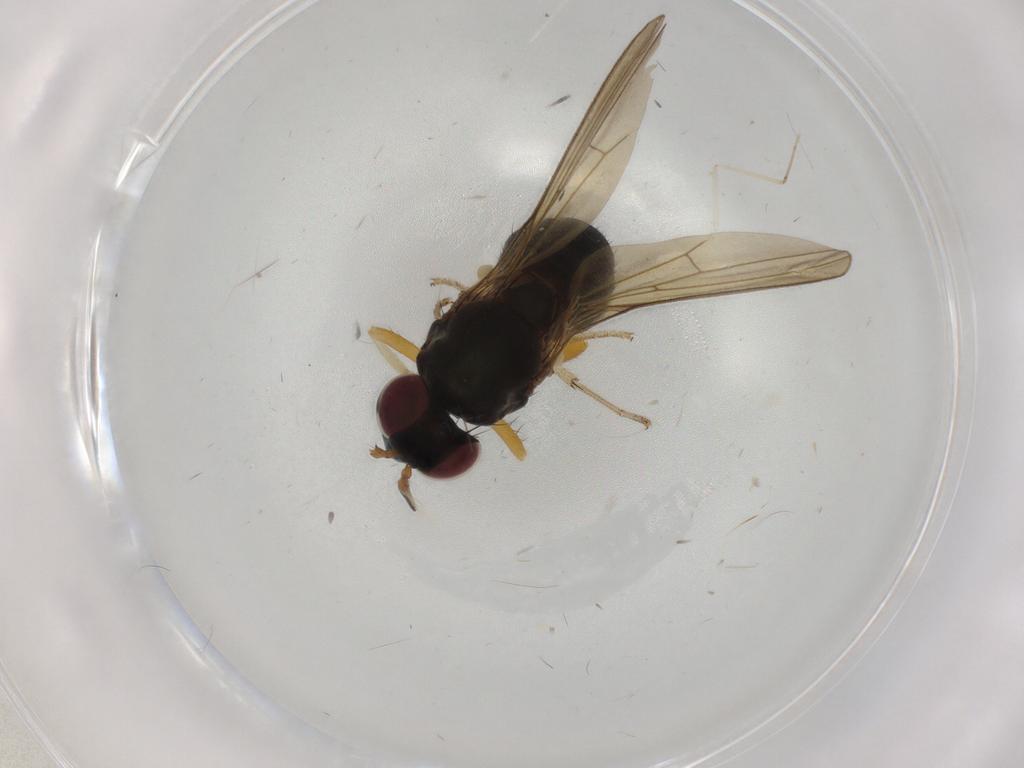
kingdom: Animalia
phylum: Arthropoda
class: Insecta
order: Diptera
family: Lauxaniidae
